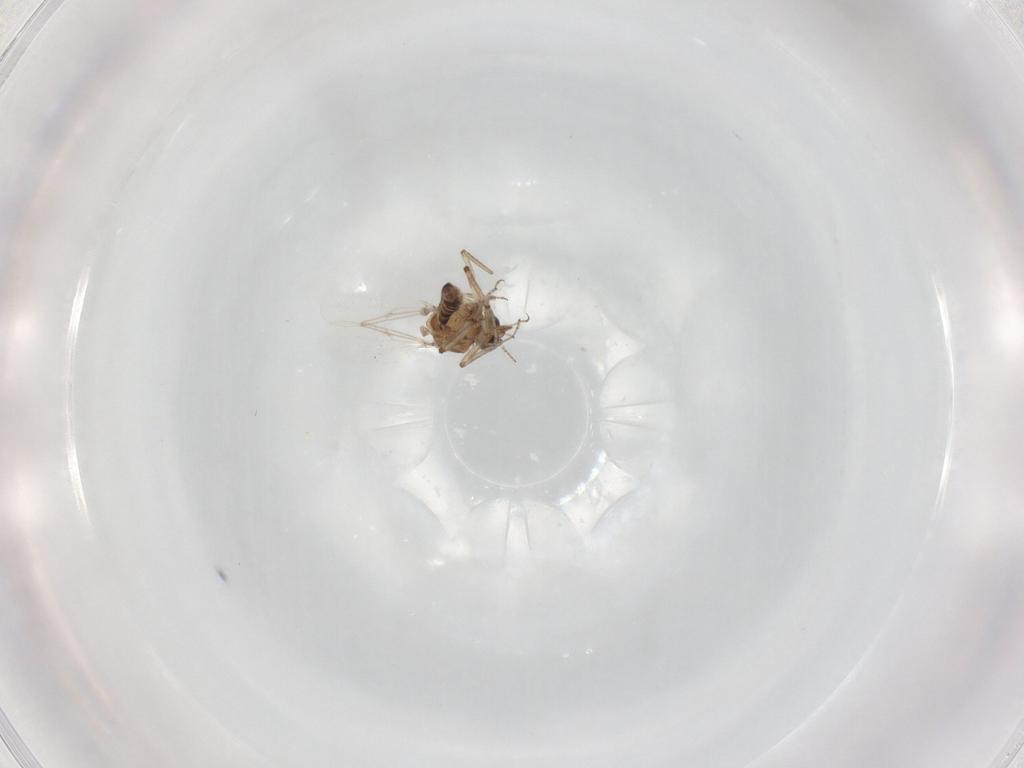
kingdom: Animalia
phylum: Arthropoda
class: Insecta
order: Diptera
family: Ceratopogonidae
